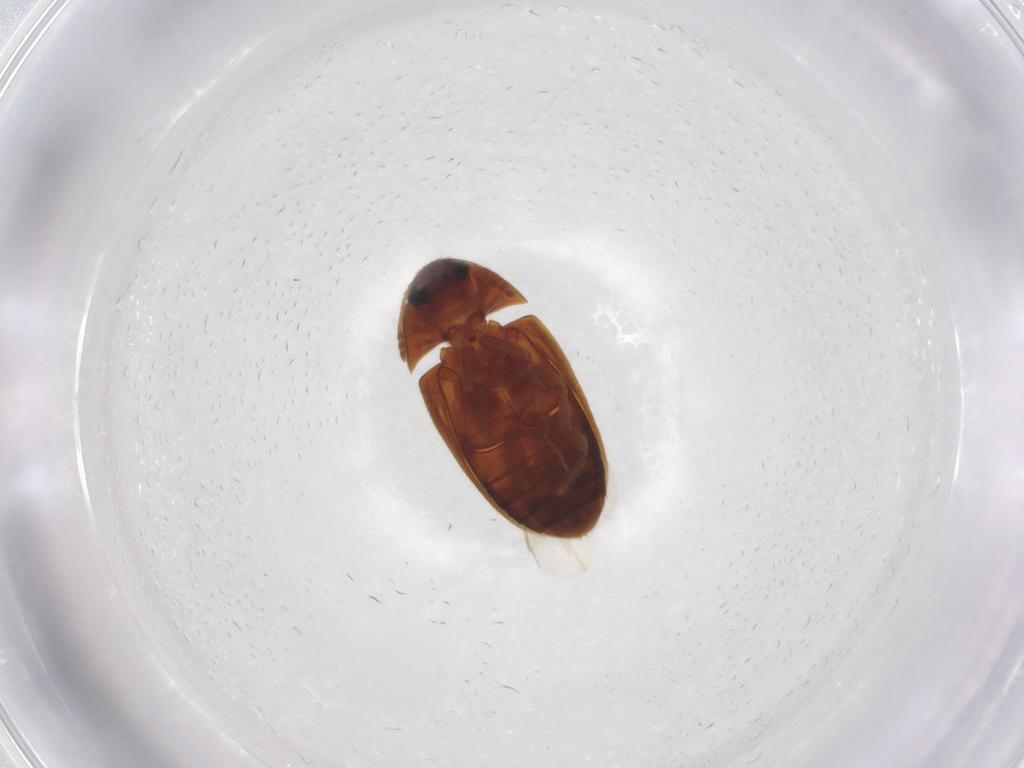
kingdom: Animalia
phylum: Arthropoda
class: Insecta
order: Coleoptera
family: Mycetophagidae
